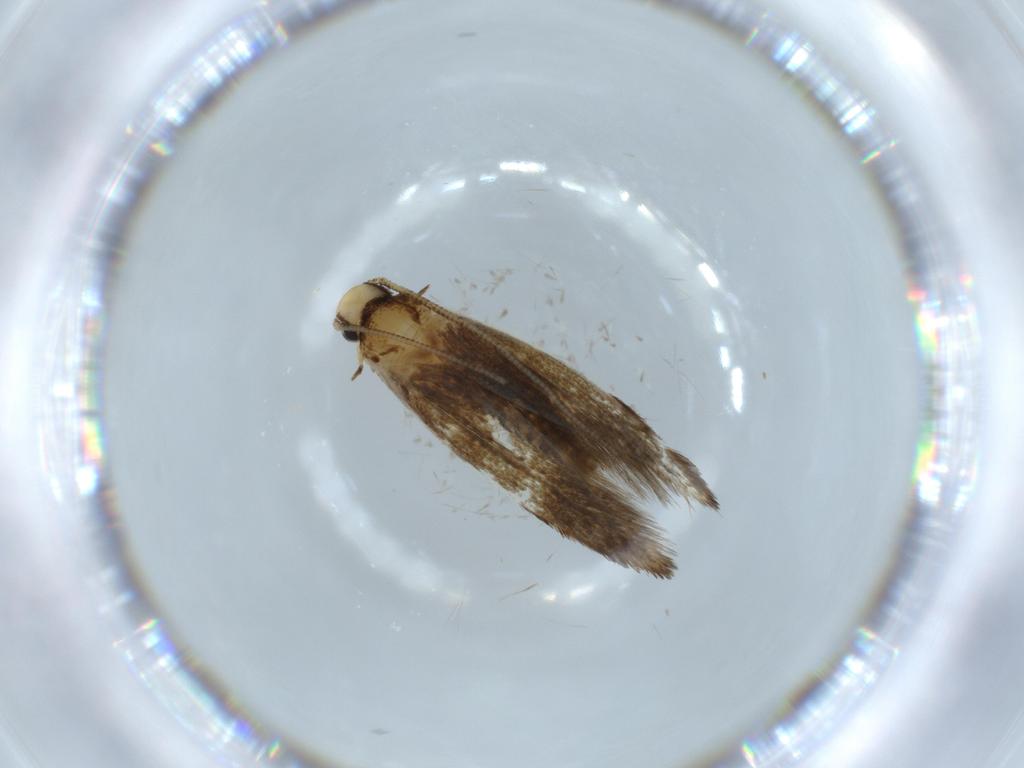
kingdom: Animalia
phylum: Arthropoda
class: Insecta
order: Lepidoptera
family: Tineidae
